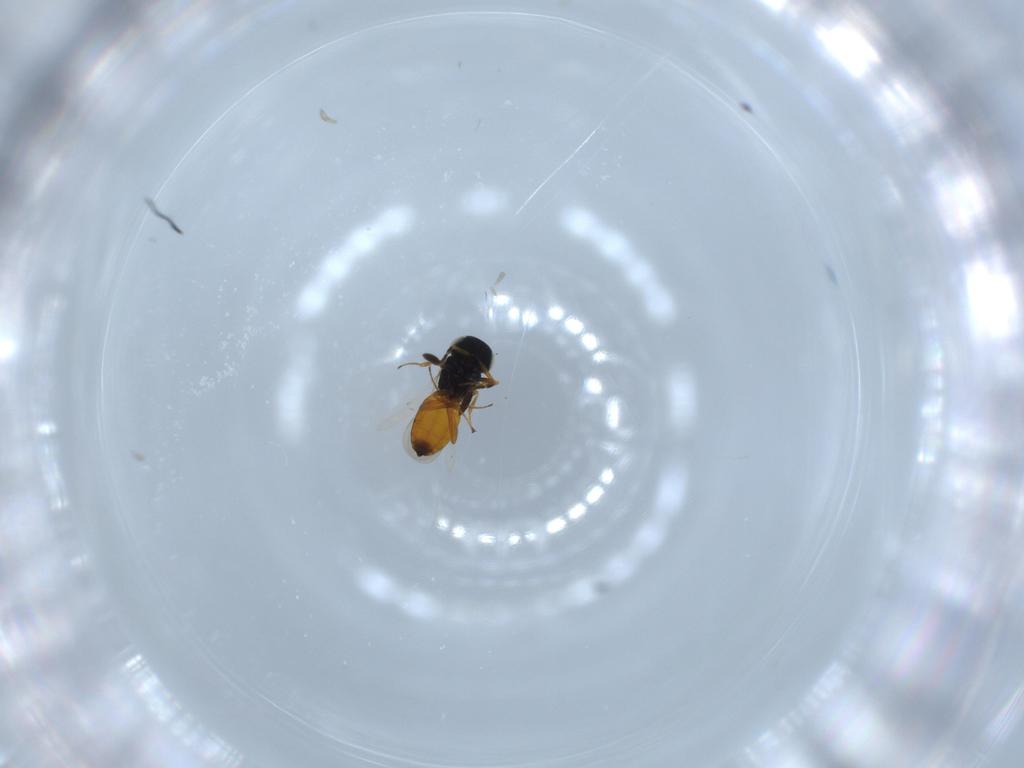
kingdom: Animalia
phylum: Arthropoda
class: Insecta
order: Hymenoptera
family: Scelionidae
